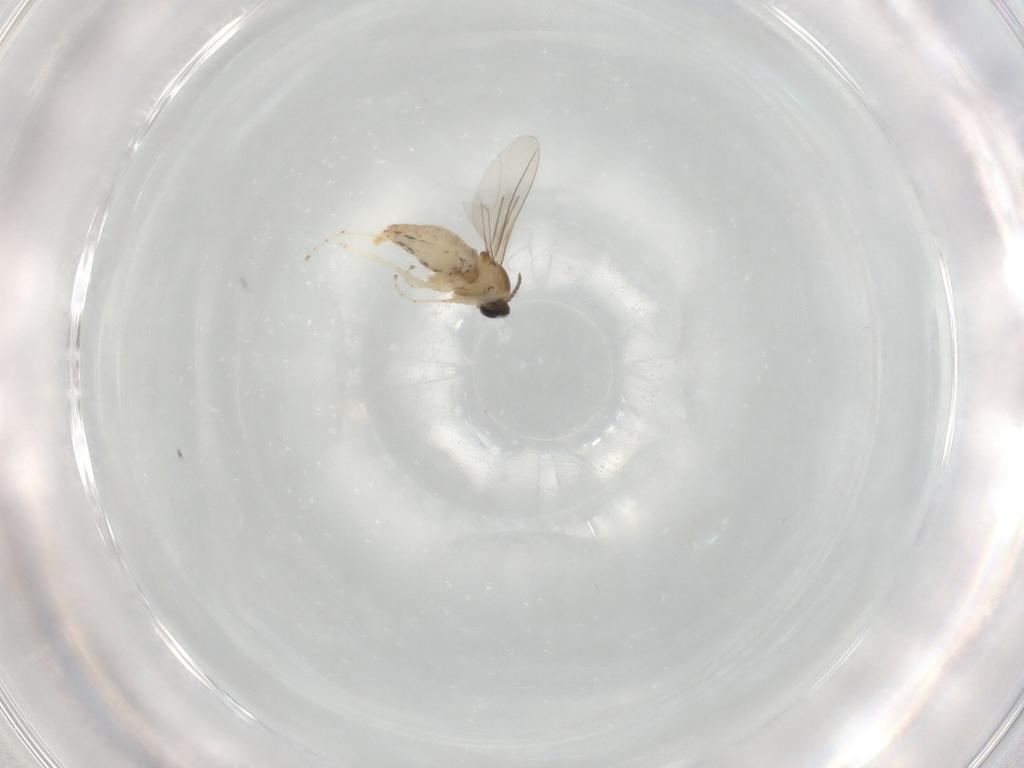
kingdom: Animalia
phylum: Arthropoda
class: Insecta
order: Diptera
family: Cecidomyiidae
